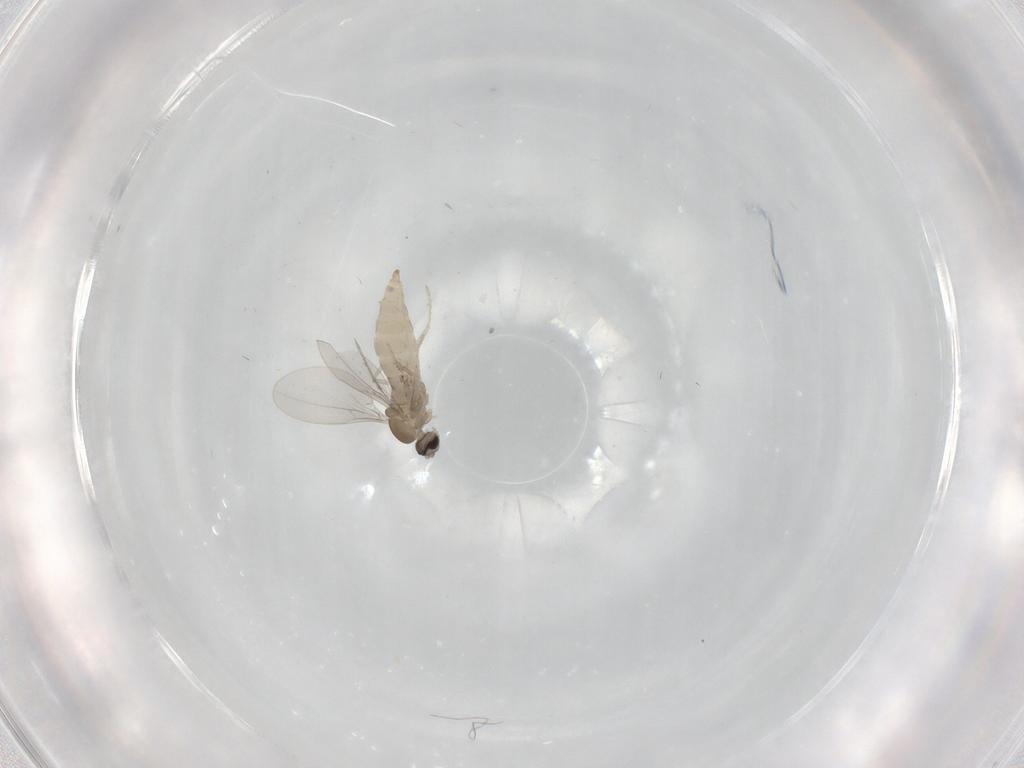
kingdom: Animalia
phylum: Arthropoda
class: Insecta
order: Diptera
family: Cecidomyiidae
